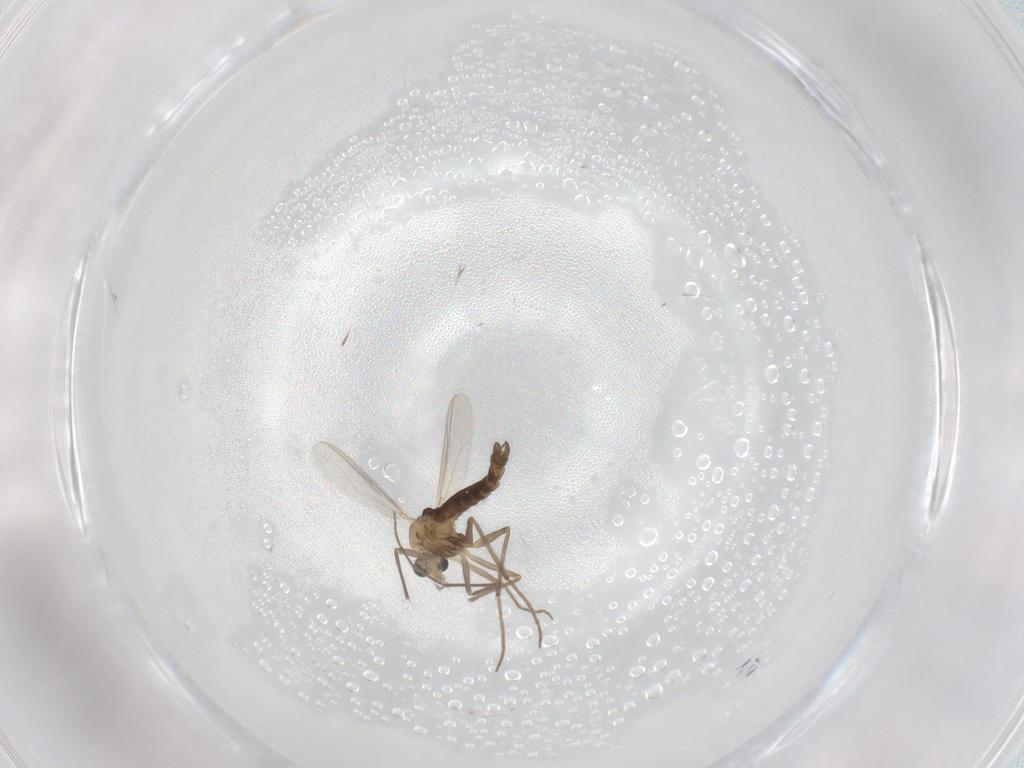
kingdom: Animalia
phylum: Arthropoda
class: Insecta
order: Diptera
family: Chironomidae
